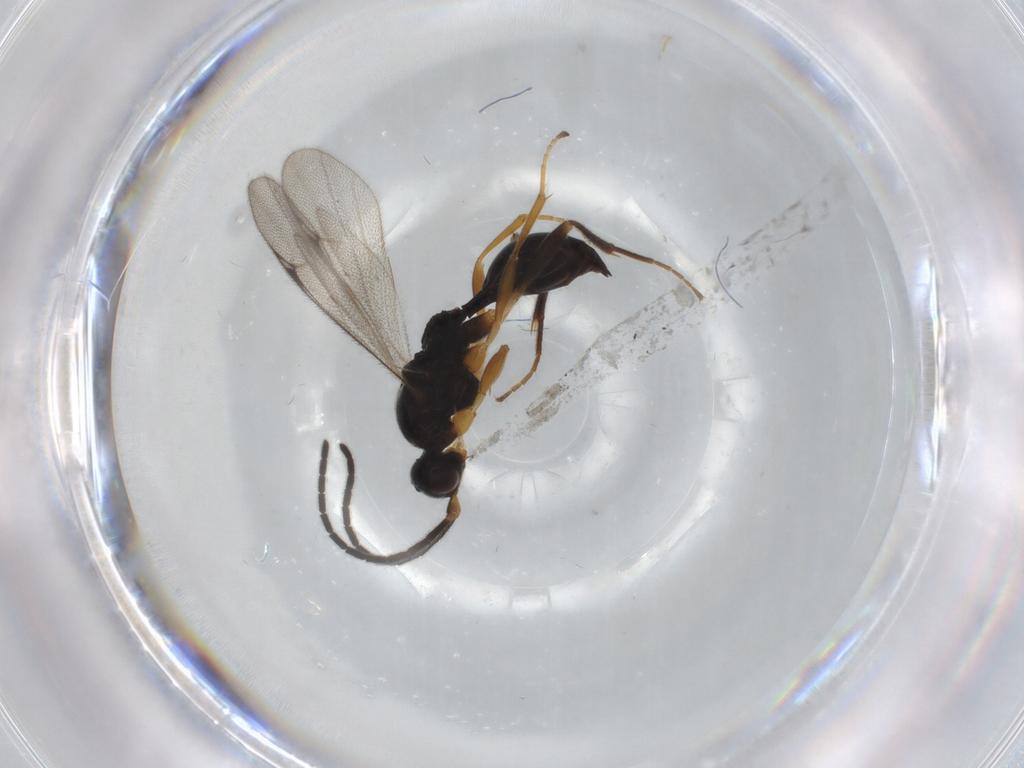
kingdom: Animalia
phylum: Arthropoda
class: Insecta
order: Hymenoptera
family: Proctotrupidae
